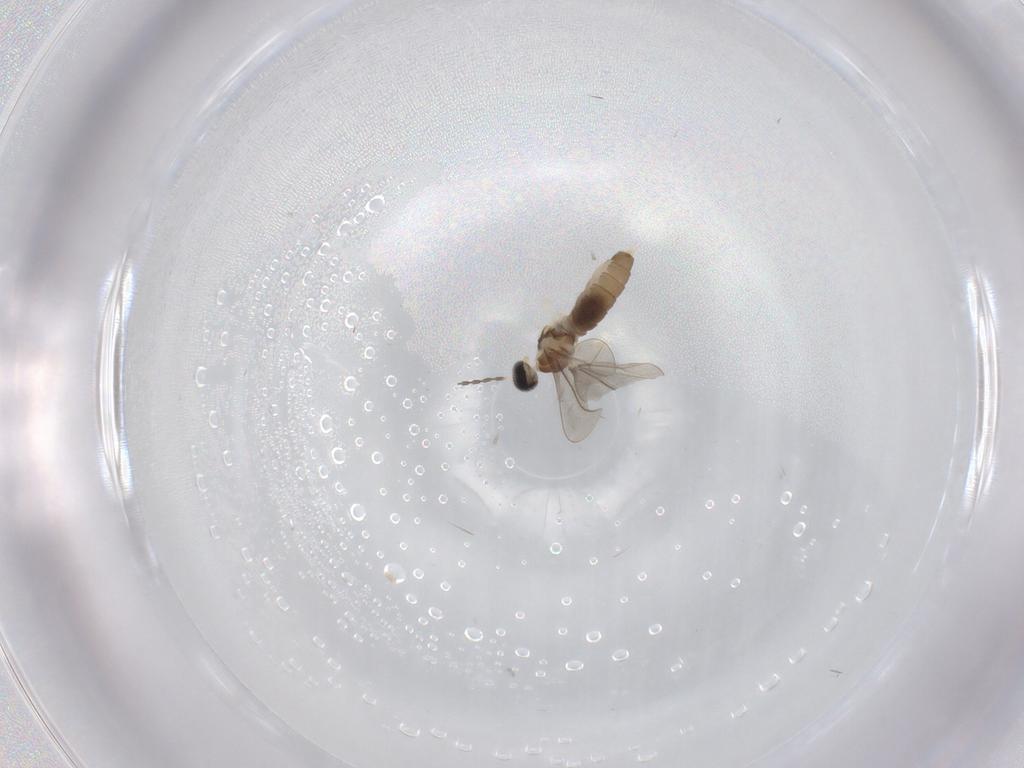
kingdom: Animalia
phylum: Arthropoda
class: Insecta
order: Diptera
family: Cecidomyiidae
